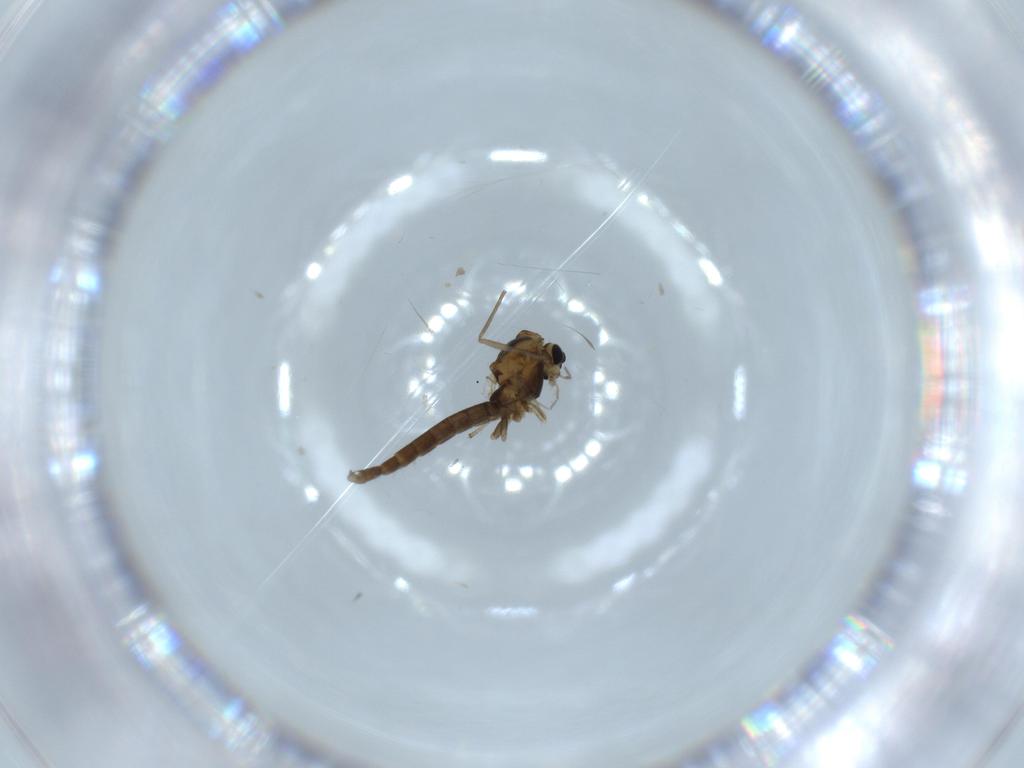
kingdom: Animalia
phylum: Arthropoda
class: Insecta
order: Diptera
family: Chironomidae
